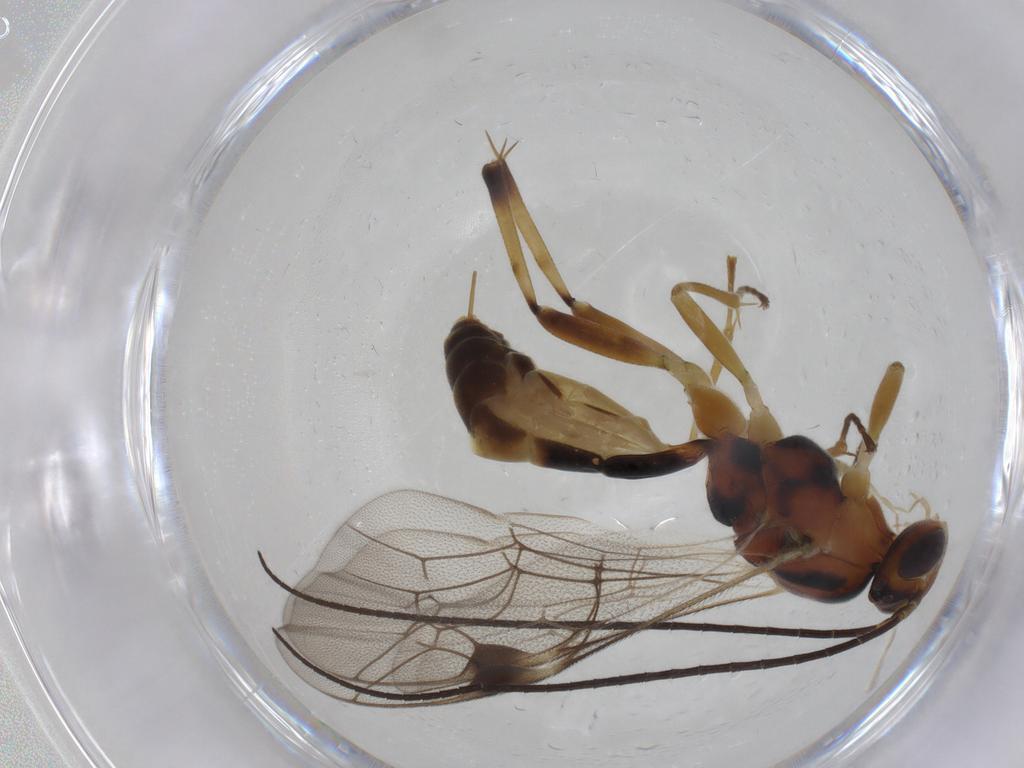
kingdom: Animalia
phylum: Arthropoda
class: Insecta
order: Hymenoptera
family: Ichneumonidae
